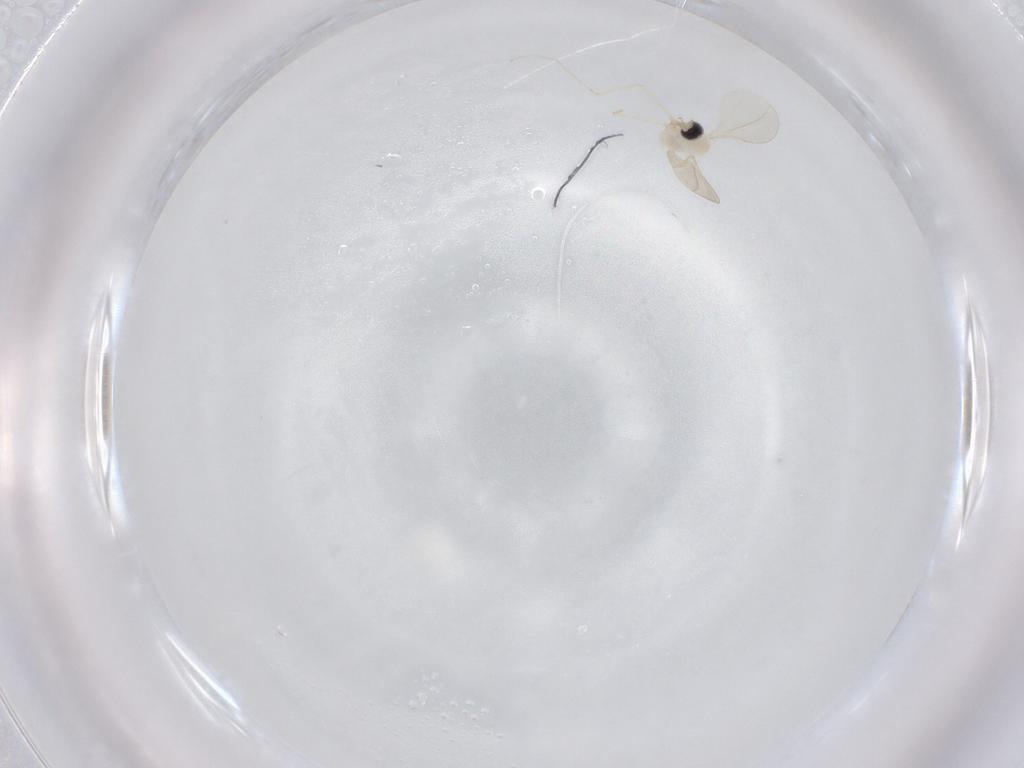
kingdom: Animalia
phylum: Arthropoda
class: Insecta
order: Diptera
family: Cecidomyiidae
